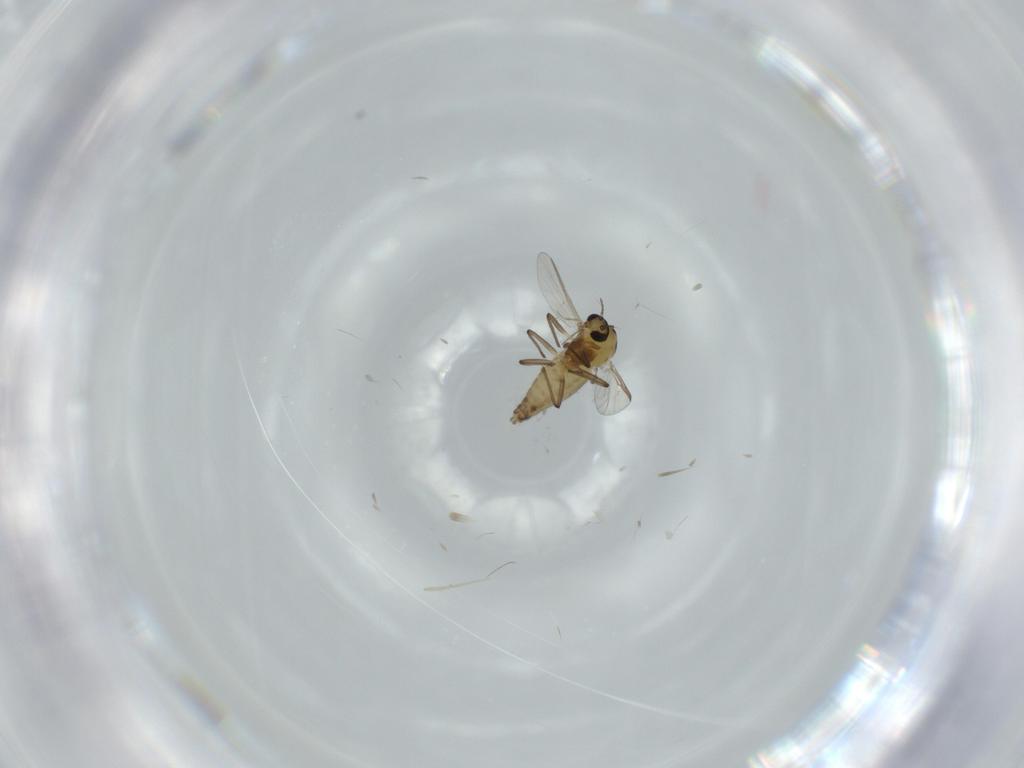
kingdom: Animalia
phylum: Arthropoda
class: Insecta
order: Diptera
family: Chironomidae
